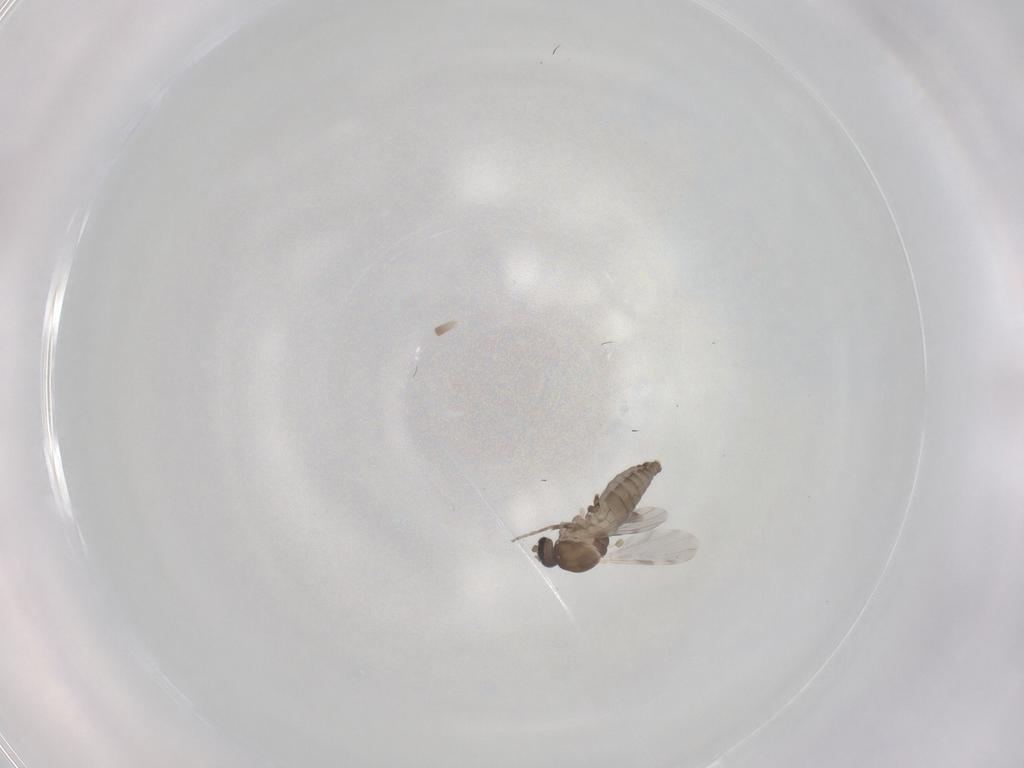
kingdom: Animalia
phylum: Arthropoda
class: Insecta
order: Diptera
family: Ceratopogonidae
